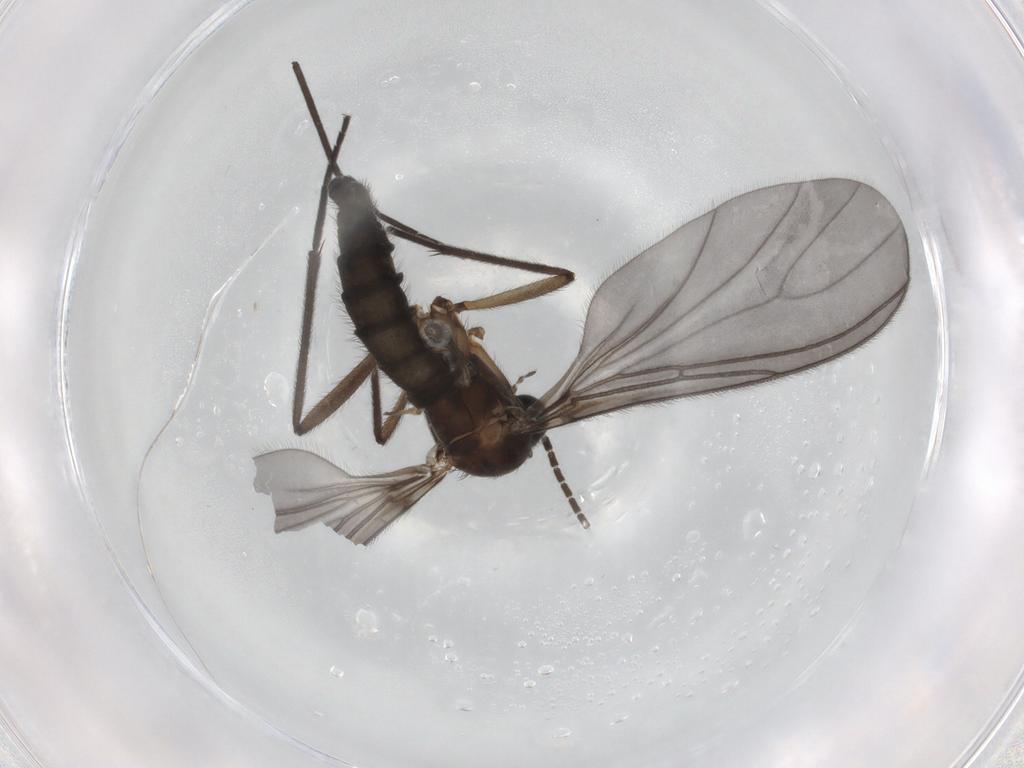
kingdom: Animalia
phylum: Arthropoda
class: Insecta
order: Diptera
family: Sciaridae
